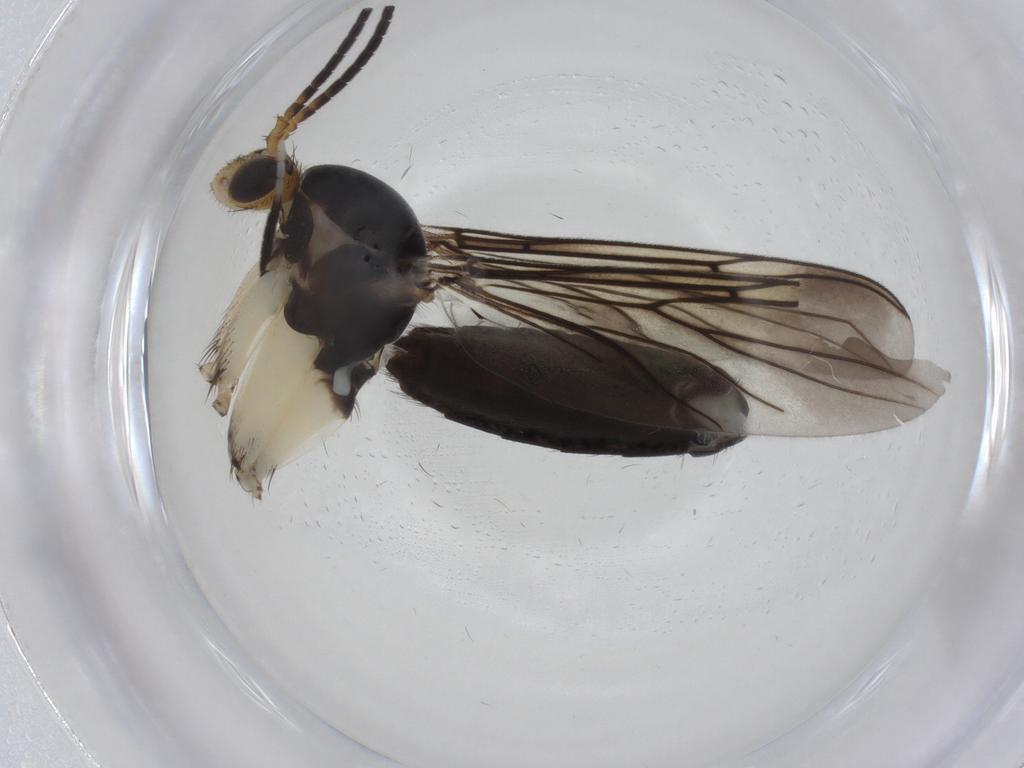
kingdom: Animalia
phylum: Arthropoda
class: Insecta
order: Diptera
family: Mycetophilidae
